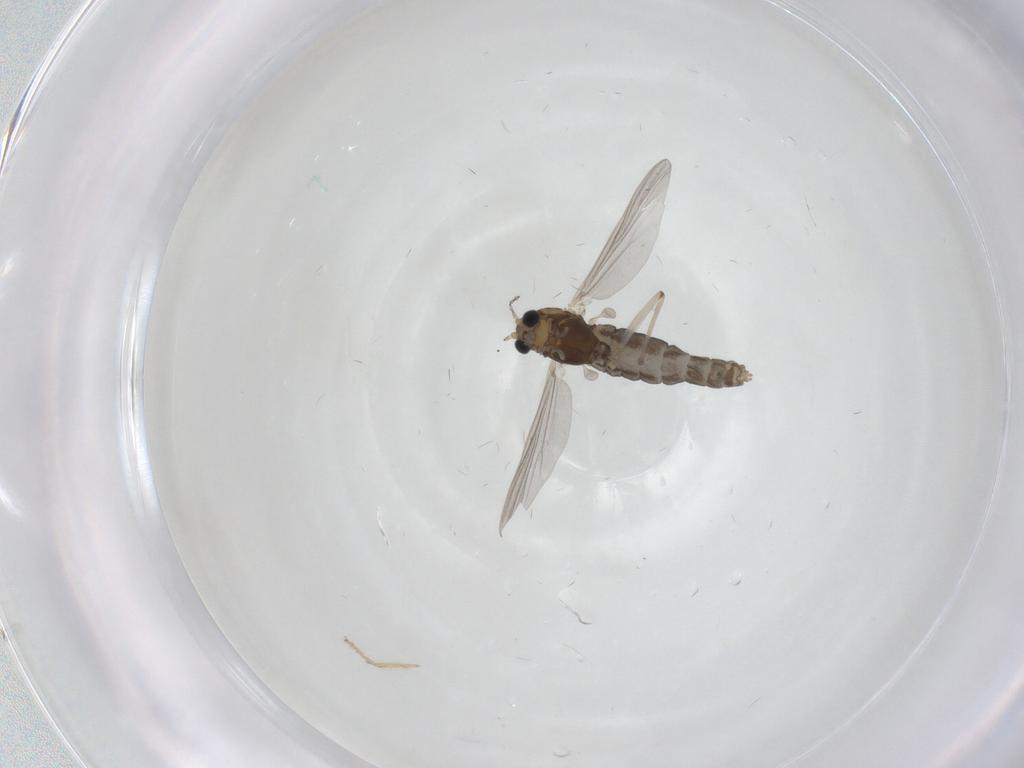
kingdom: Animalia
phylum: Arthropoda
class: Insecta
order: Diptera
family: Chironomidae
